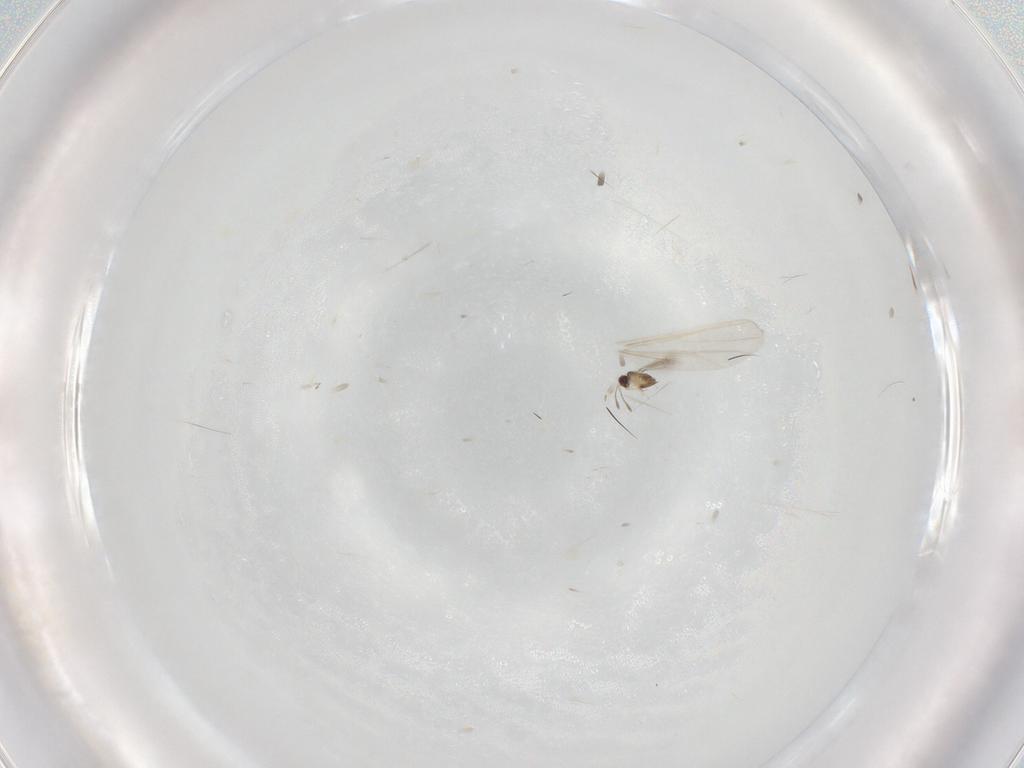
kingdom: Animalia
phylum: Arthropoda
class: Insecta
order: Hymenoptera
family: Mymaridae
